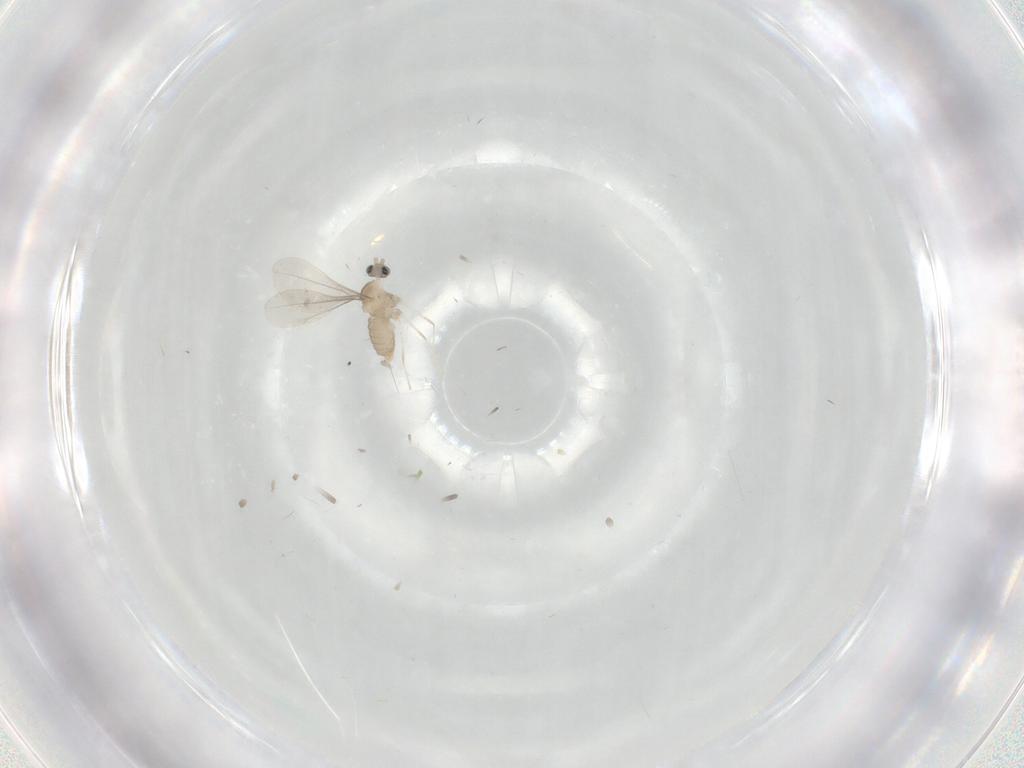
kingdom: Animalia
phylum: Arthropoda
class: Insecta
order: Diptera
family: Cecidomyiidae
